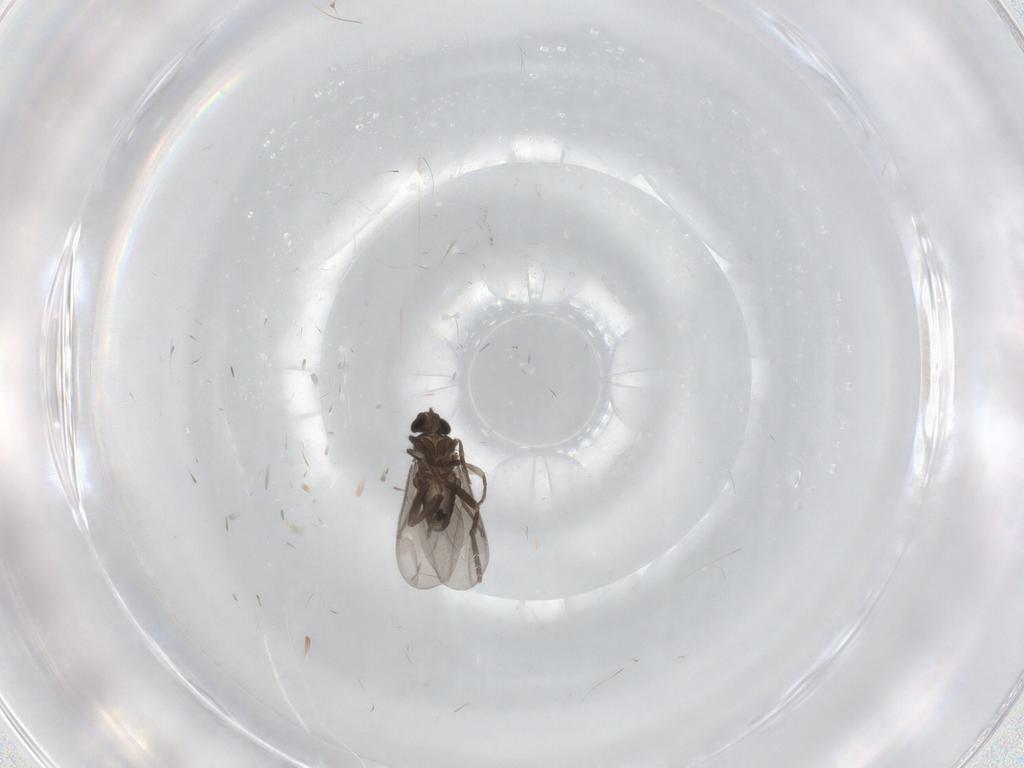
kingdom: Animalia
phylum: Arthropoda
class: Insecta
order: Diptera
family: Phoridae
